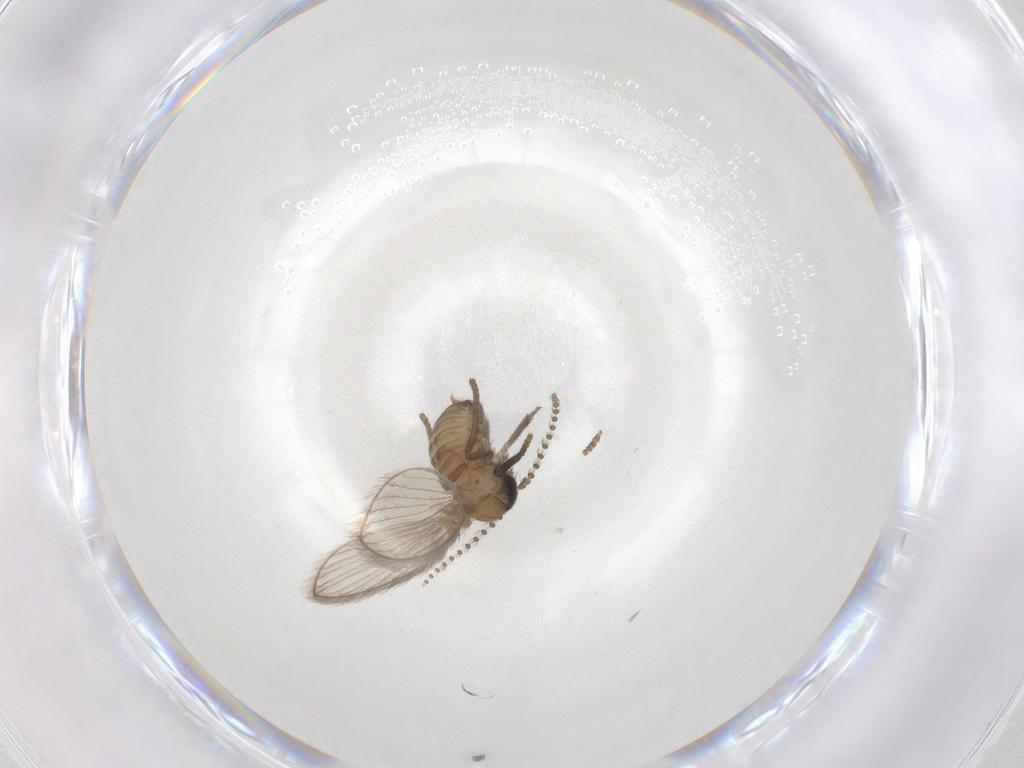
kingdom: Animalia
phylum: Arthropoda
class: Insecta
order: Diptera
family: Psychodidae
